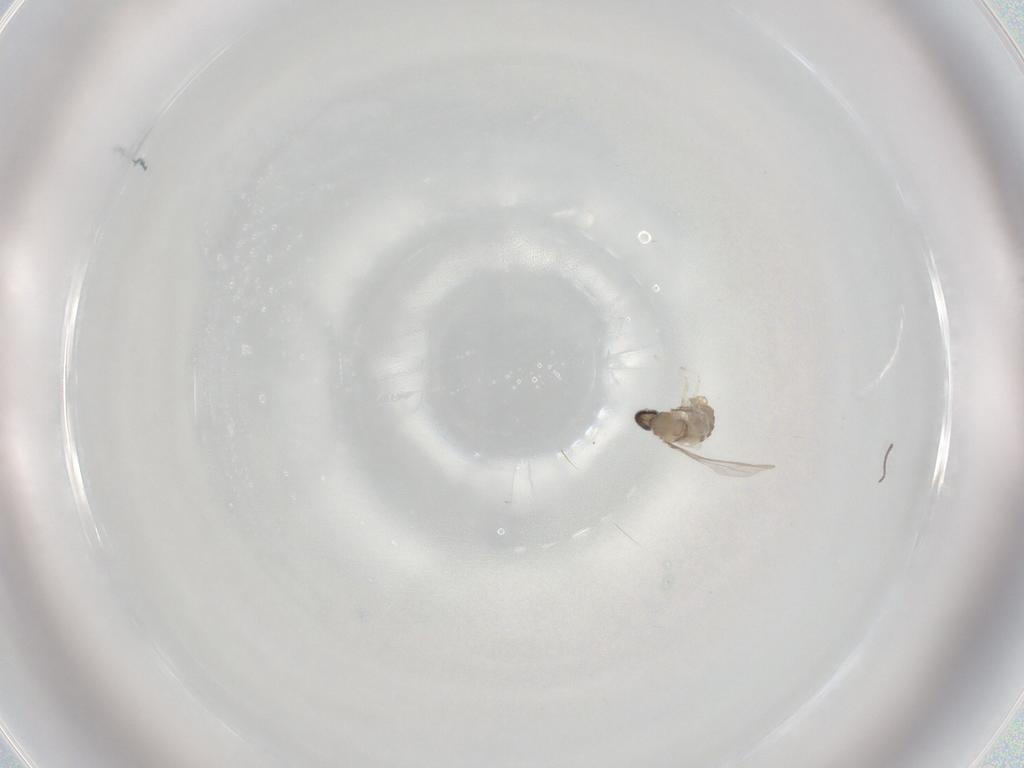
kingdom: Animalia
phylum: Arthropoda
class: Insecta
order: Diptera
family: Cecidomyiidae
